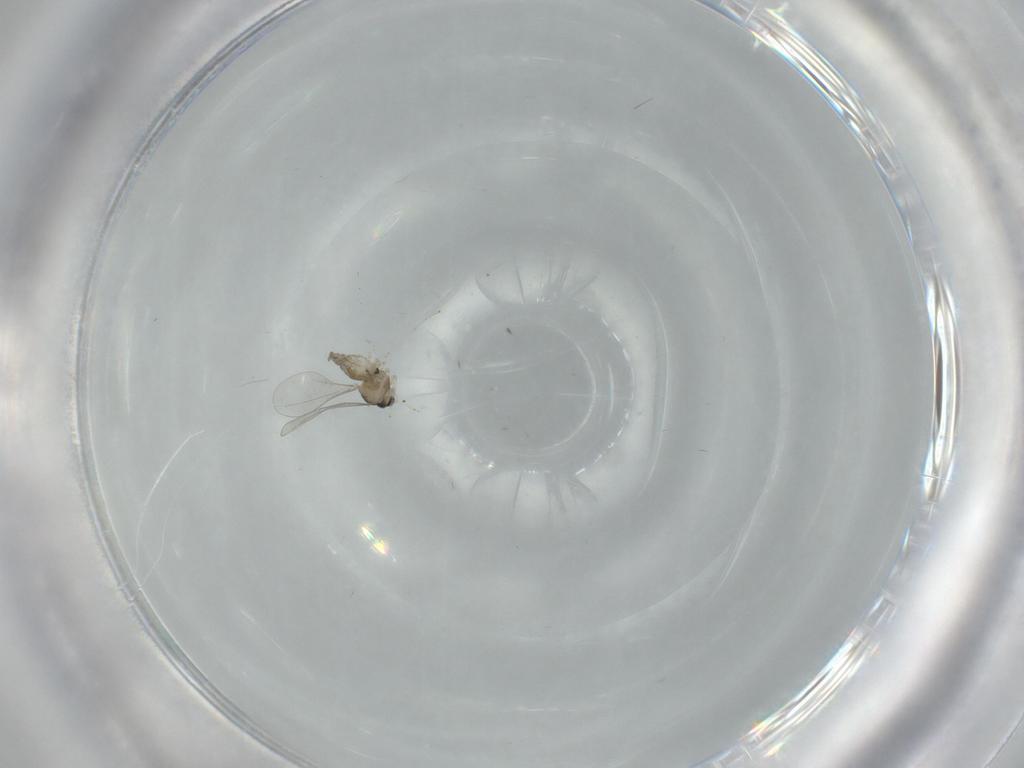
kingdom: Animalia
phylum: Arthropoda
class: Insecta
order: Diptera
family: Cecidomyiidae
